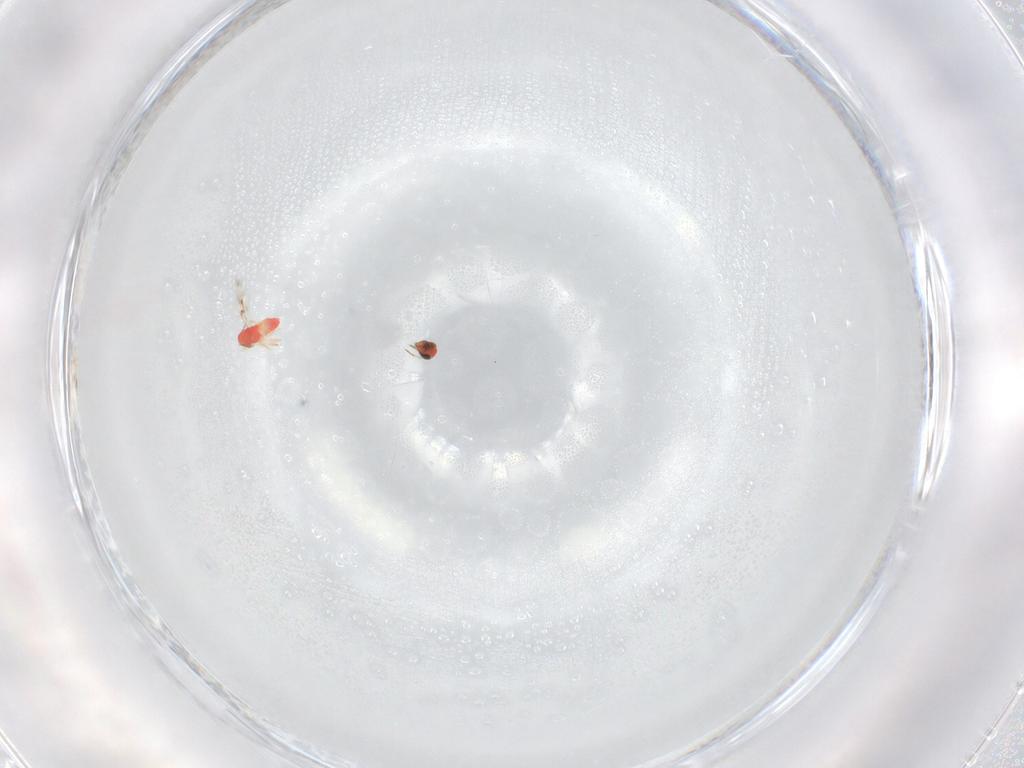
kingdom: Animalia
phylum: Arthropoda
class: Insecta
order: Hymenoptera
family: Trichogrammatidae
